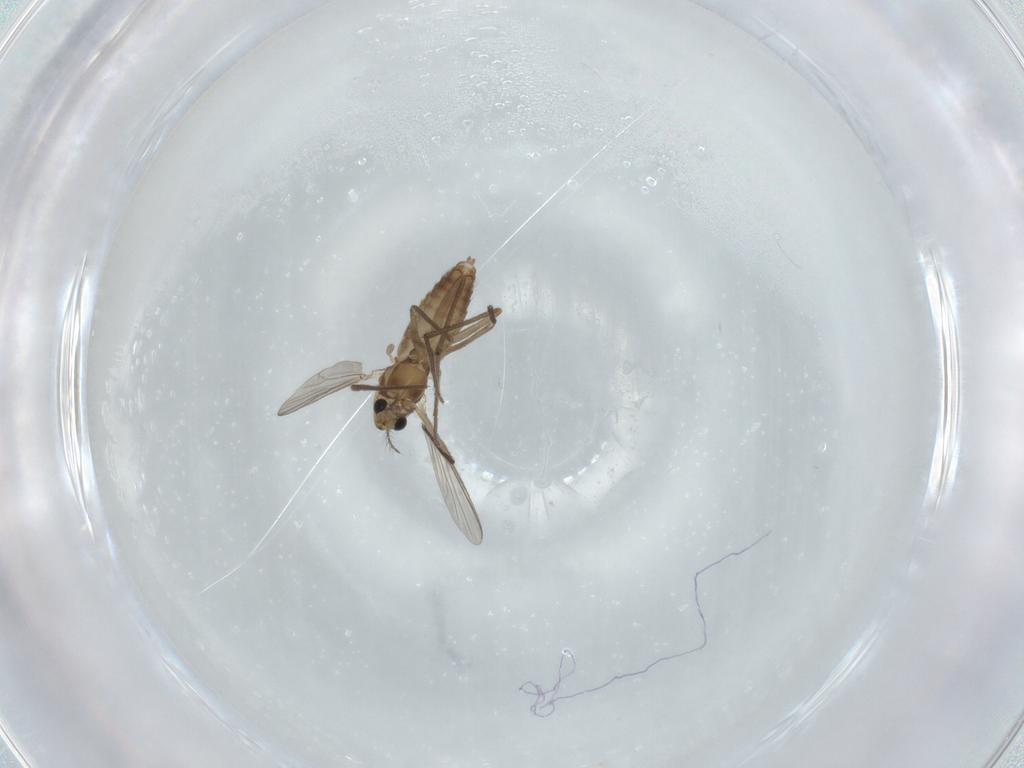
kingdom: Animalia
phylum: Arthropoda
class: Insecta
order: Diptera
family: Chironomidae
